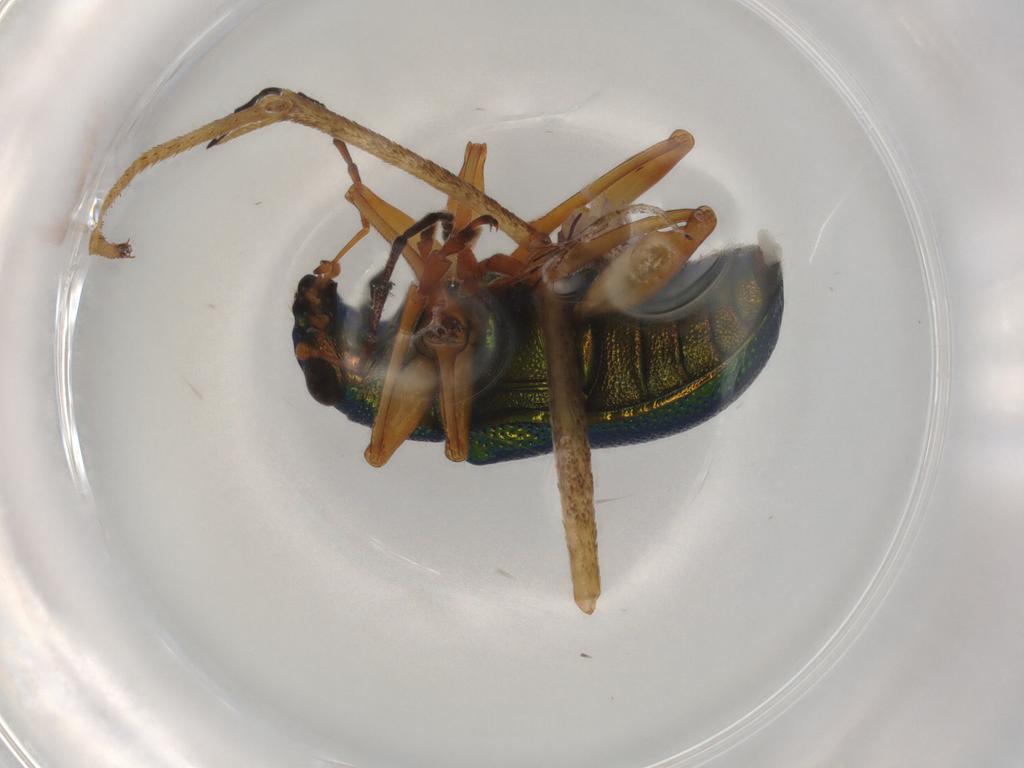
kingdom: Animalia
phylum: Arthropoda
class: Insecta
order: Coleoptera
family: Chrysomelidae
